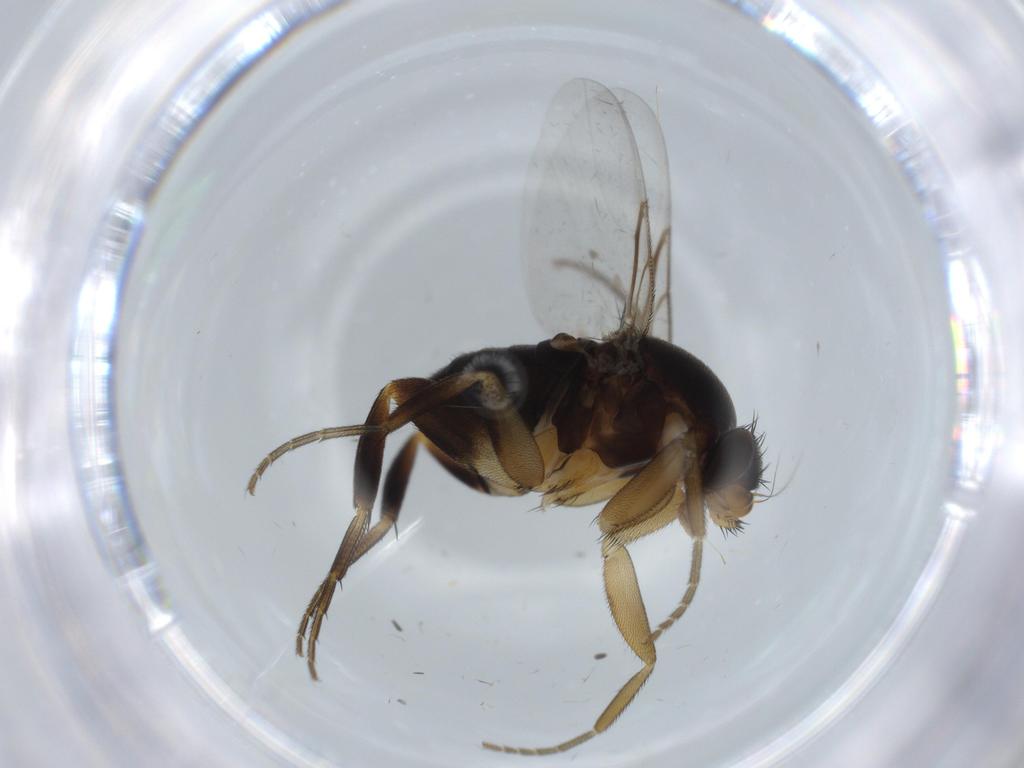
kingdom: Animalia
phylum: Arthropoda
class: Insecta
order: Diptera
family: Phoridae
